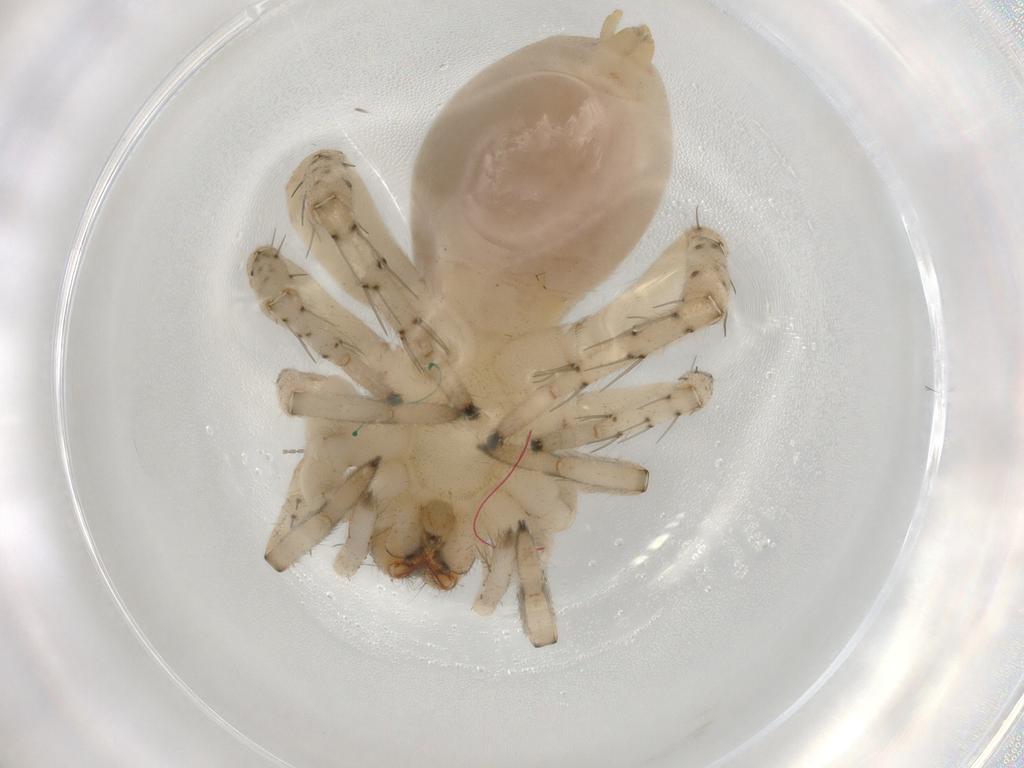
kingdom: Animalia
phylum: Arthropoda
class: Arachnida
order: Araneae
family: Clubionidae
